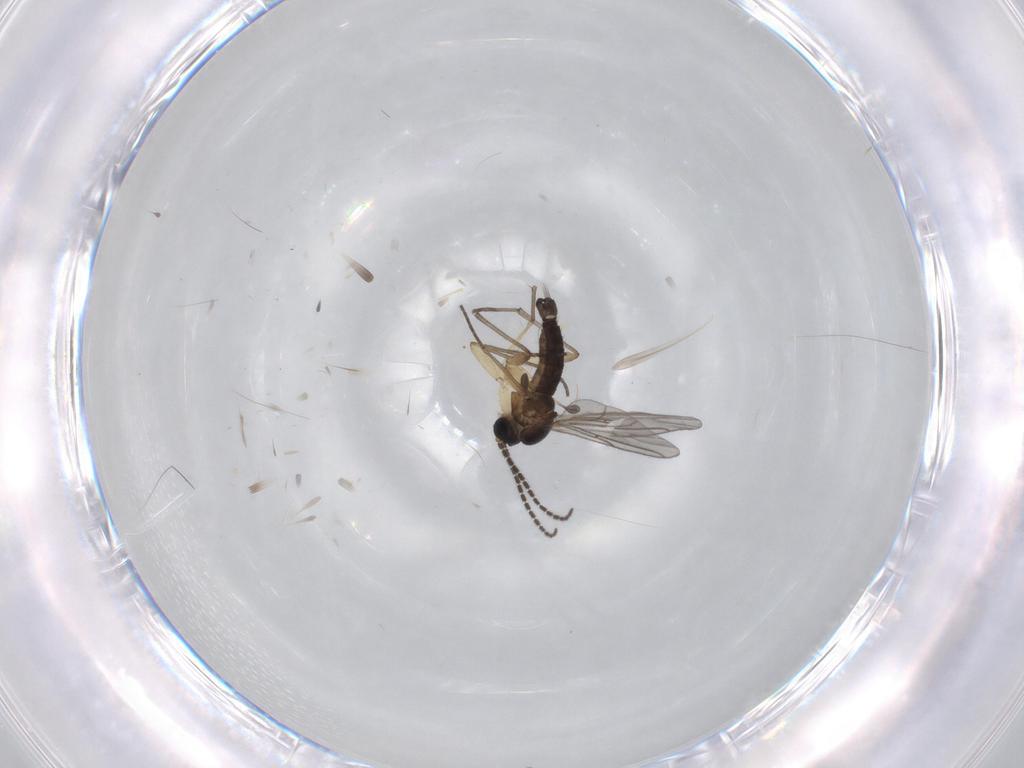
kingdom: Animalia
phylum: Arthropoda
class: Insecta
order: Diptera
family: Sciaridae
